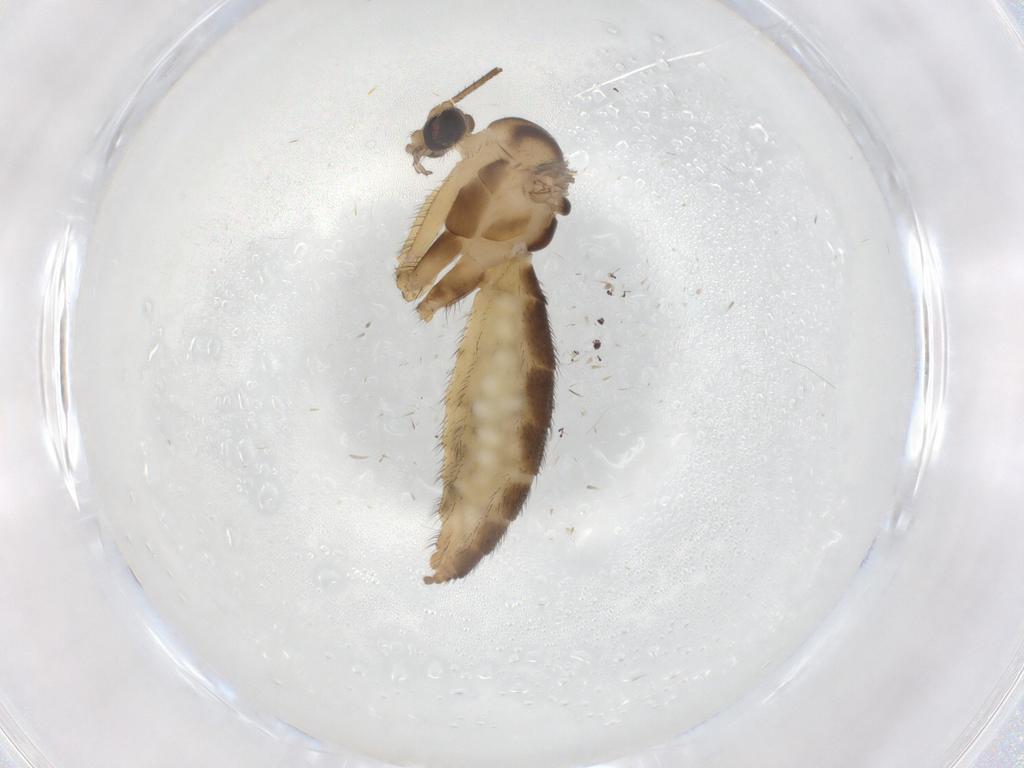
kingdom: Animalia
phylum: Arthropoda
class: Insecta
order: Diptera
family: Keroplatidae
